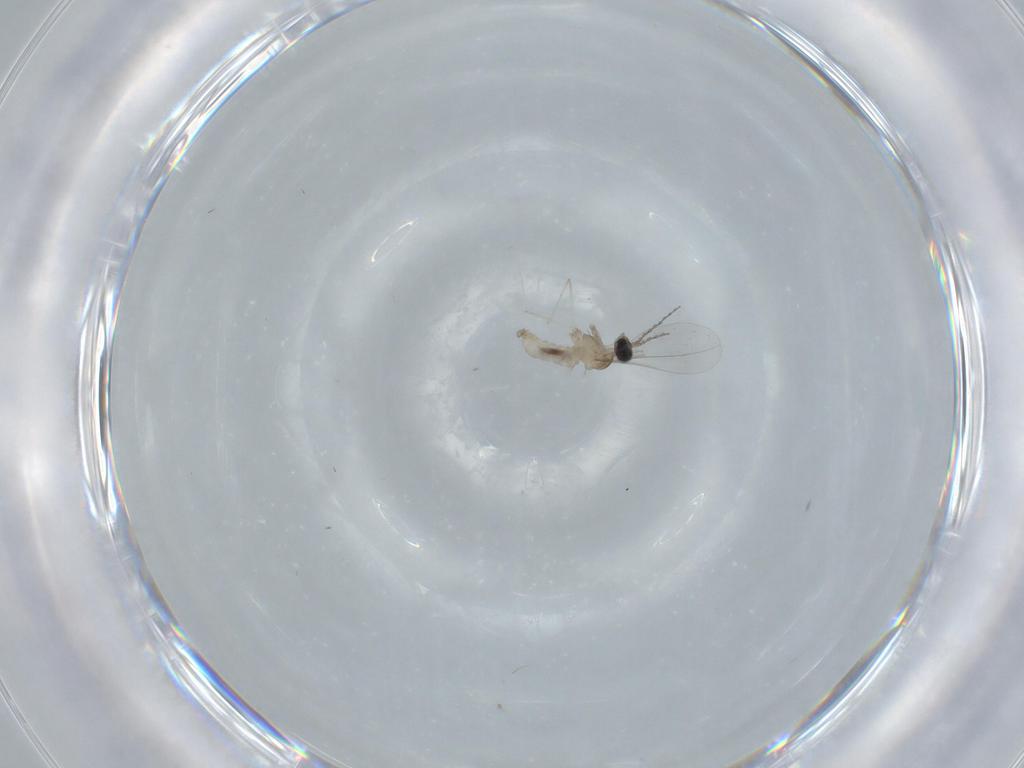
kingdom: Animalia
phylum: Arthropoda
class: Insecta
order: Diptera
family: Cecidomyiidae
